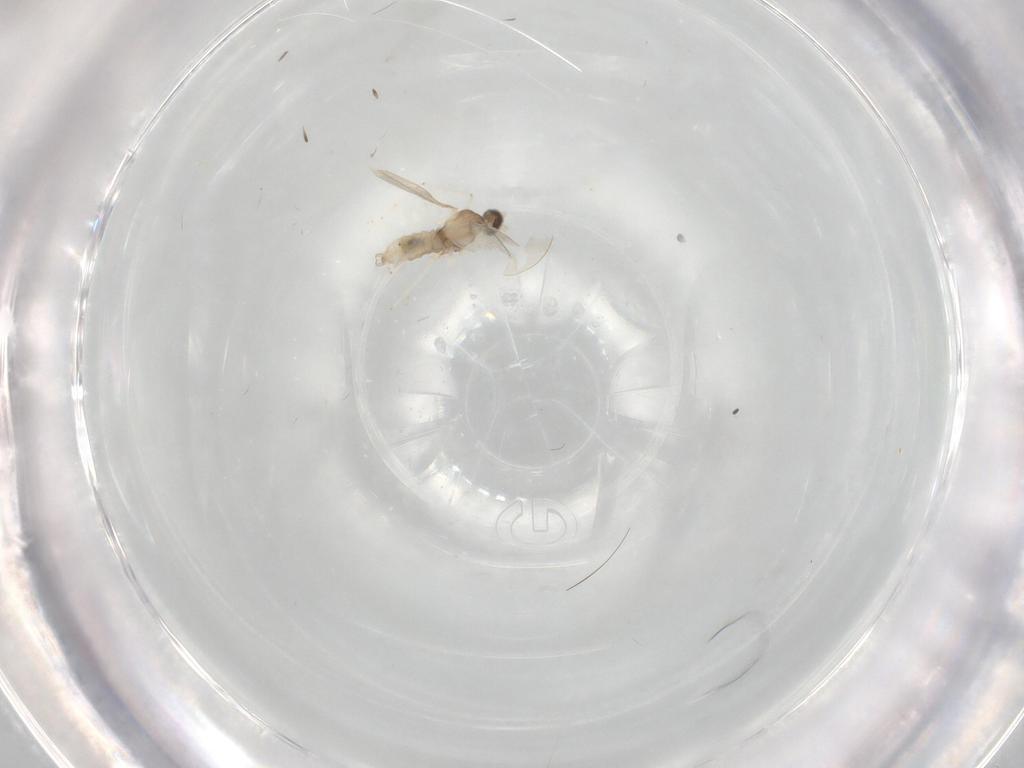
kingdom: Animalia
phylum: Arthropoda
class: Insecta
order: Diptera
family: Cecidomyiidae
